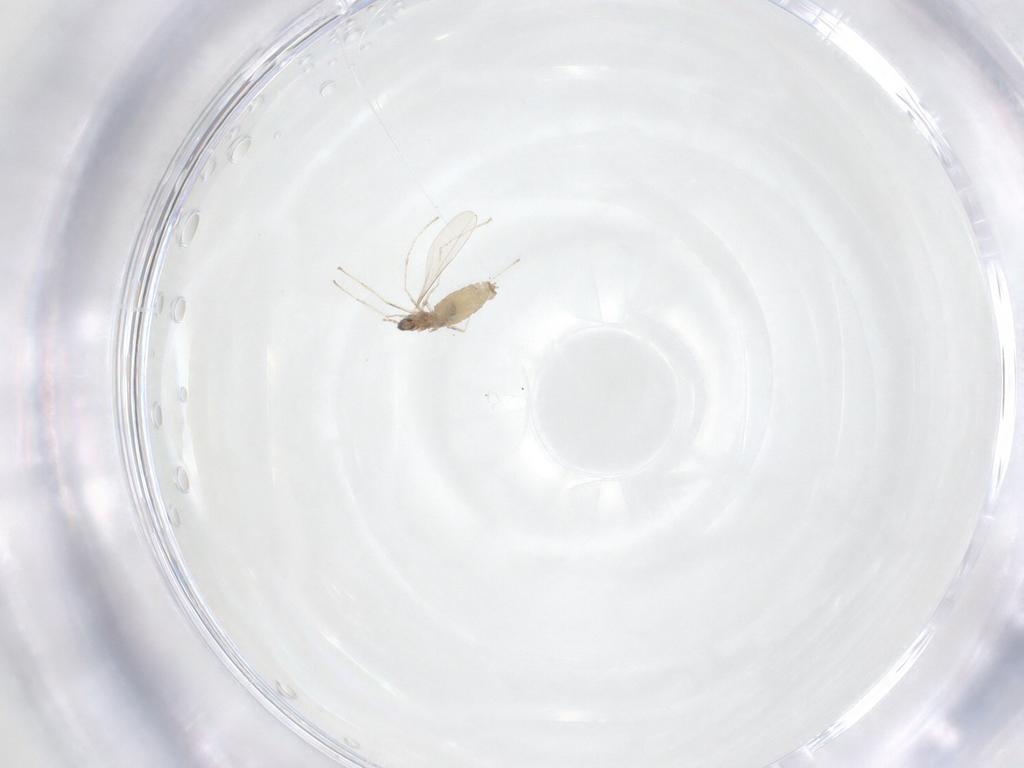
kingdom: Animalia
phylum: Arthropoda
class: Insecta
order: Diptera
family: Cecidomyiidae
